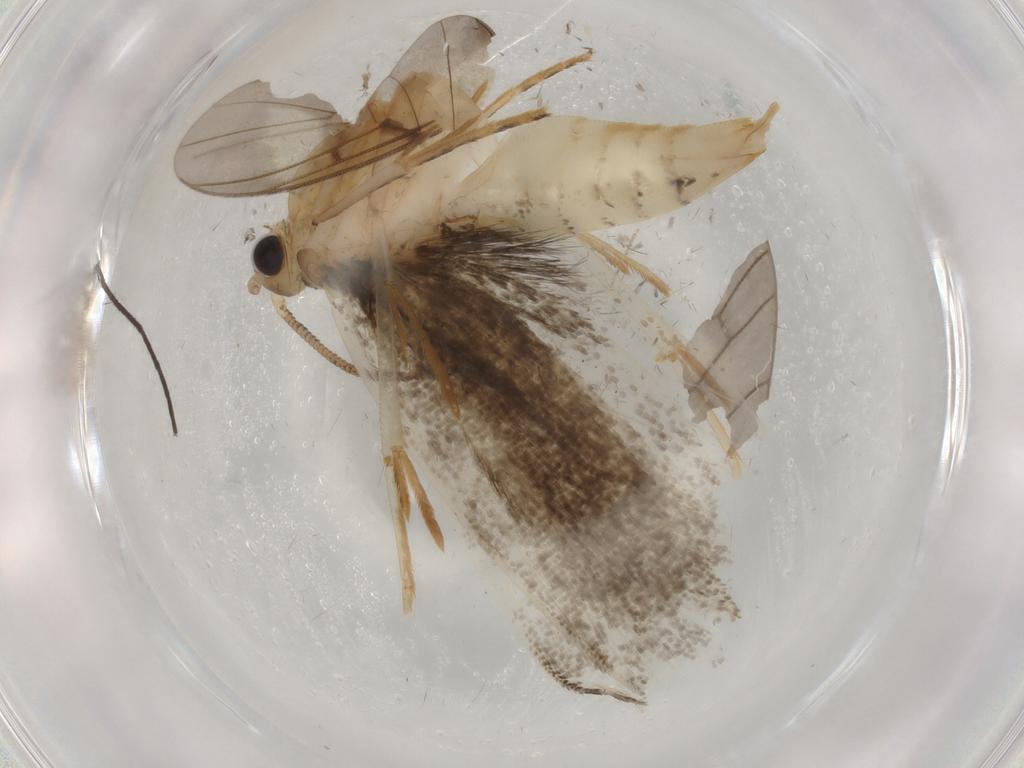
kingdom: Animalia
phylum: Arthropoda
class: Insecta
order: Lepidoptera
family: Tineidae
